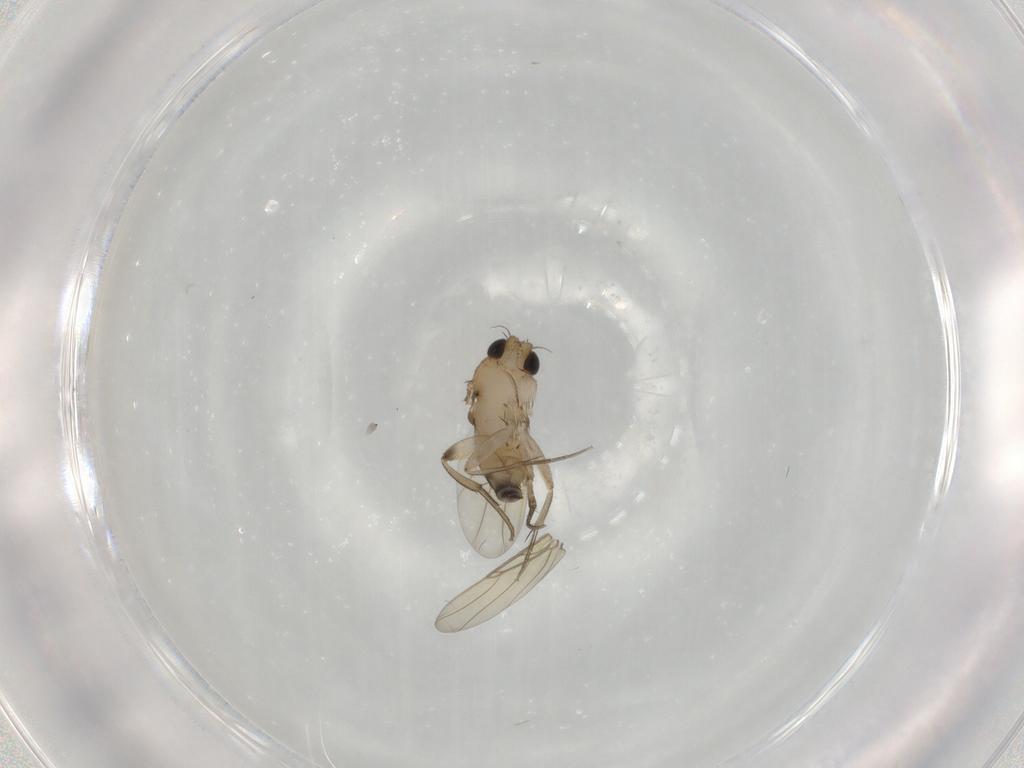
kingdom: Animalia
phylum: Arthropoda
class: Insecta
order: Diptera
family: Phoridae
